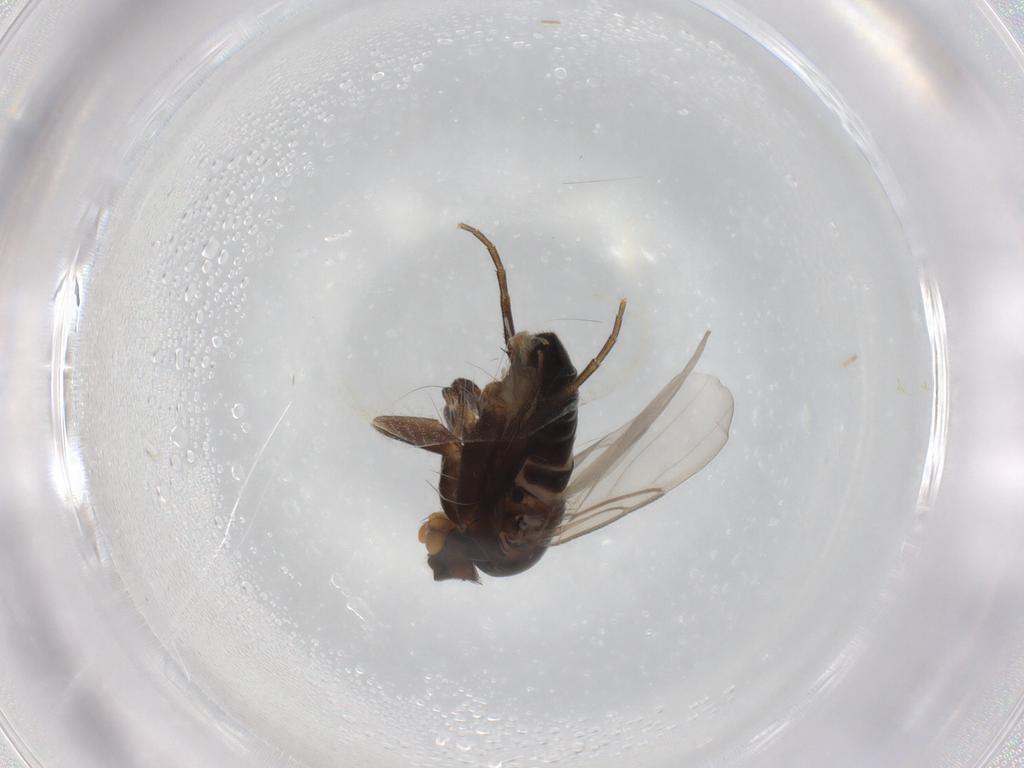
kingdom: Animalia
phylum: Arthropoda
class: Insecta
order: Diptera
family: Phoridae
